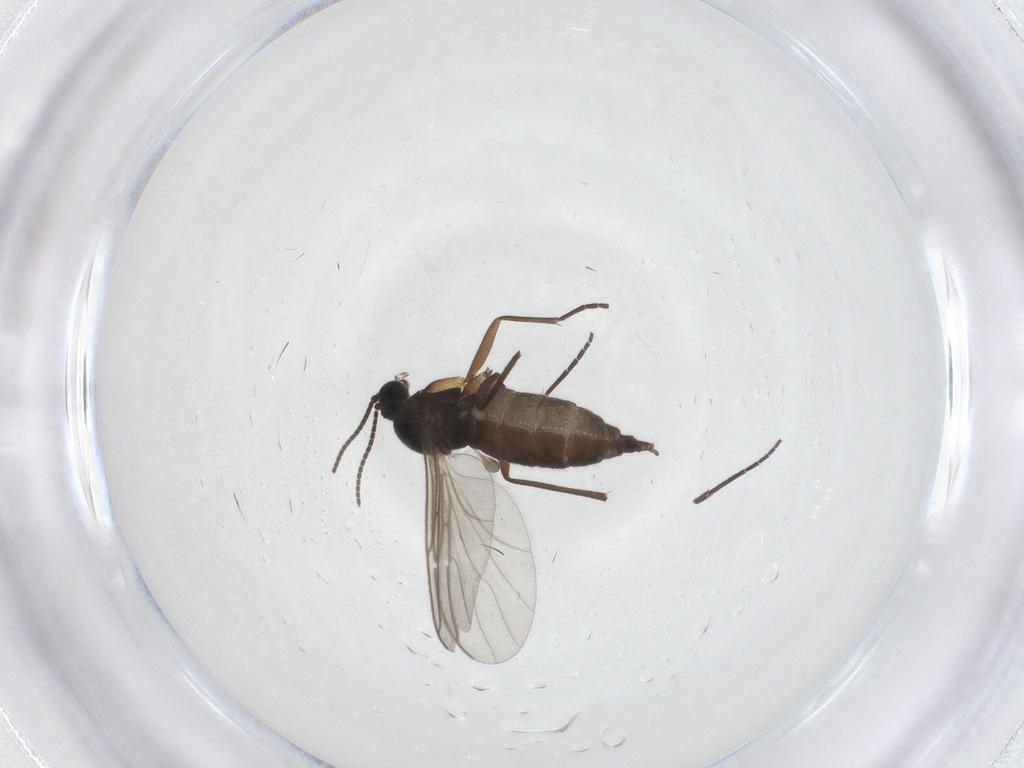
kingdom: Animalia
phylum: Arthropoda
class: Insecta
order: Diptera
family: Sciaridae
